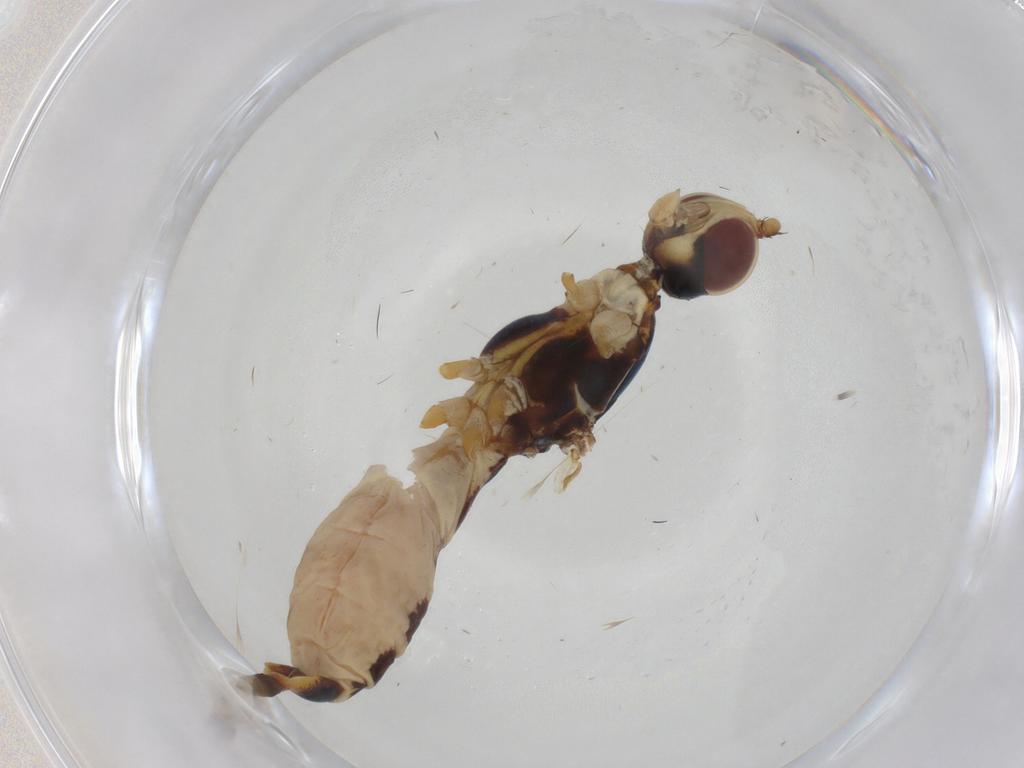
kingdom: Animalia
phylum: Arthropoda
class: Insecta
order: Diptera
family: Micropezidae
